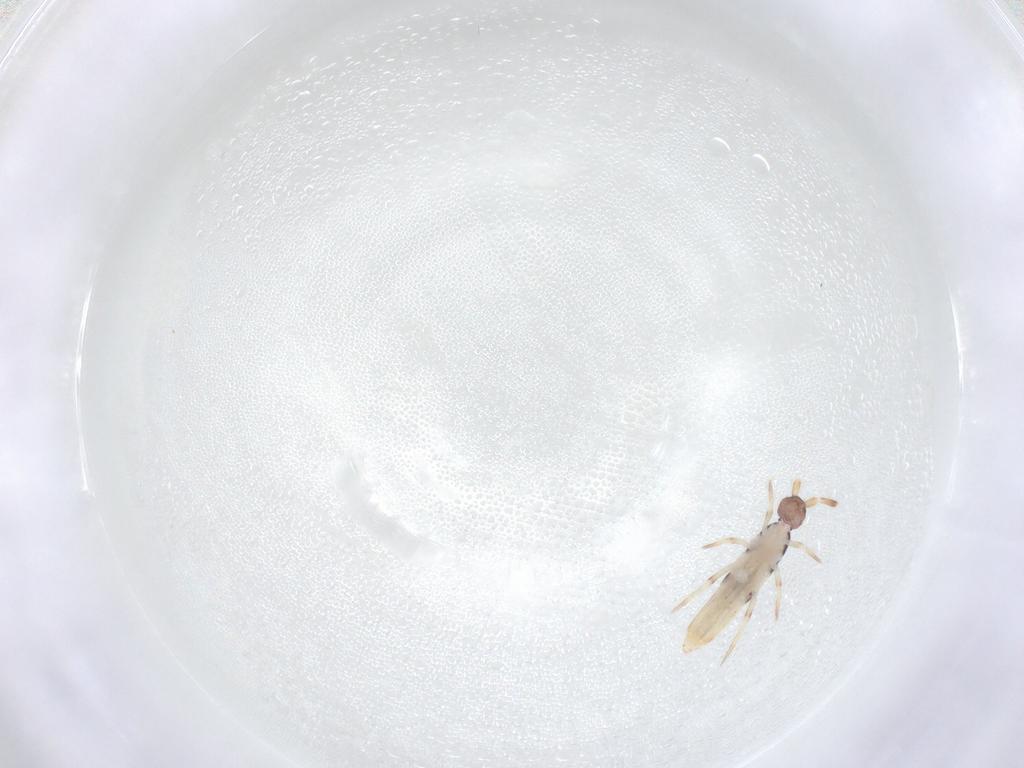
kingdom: Animalia
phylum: Arthropoda
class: Collembola
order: Entomobryomorpha
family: Entomobryidae
